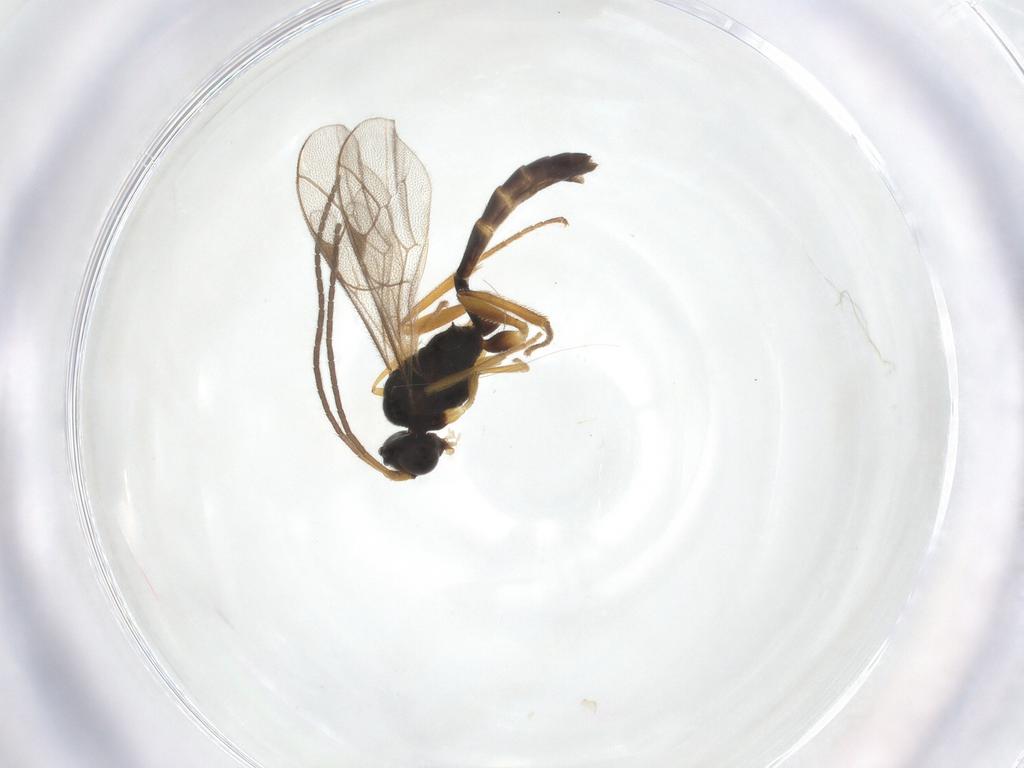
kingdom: Animalia
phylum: Arthropoda
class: Insecta
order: Hymenoptera
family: Ichneumonidae
